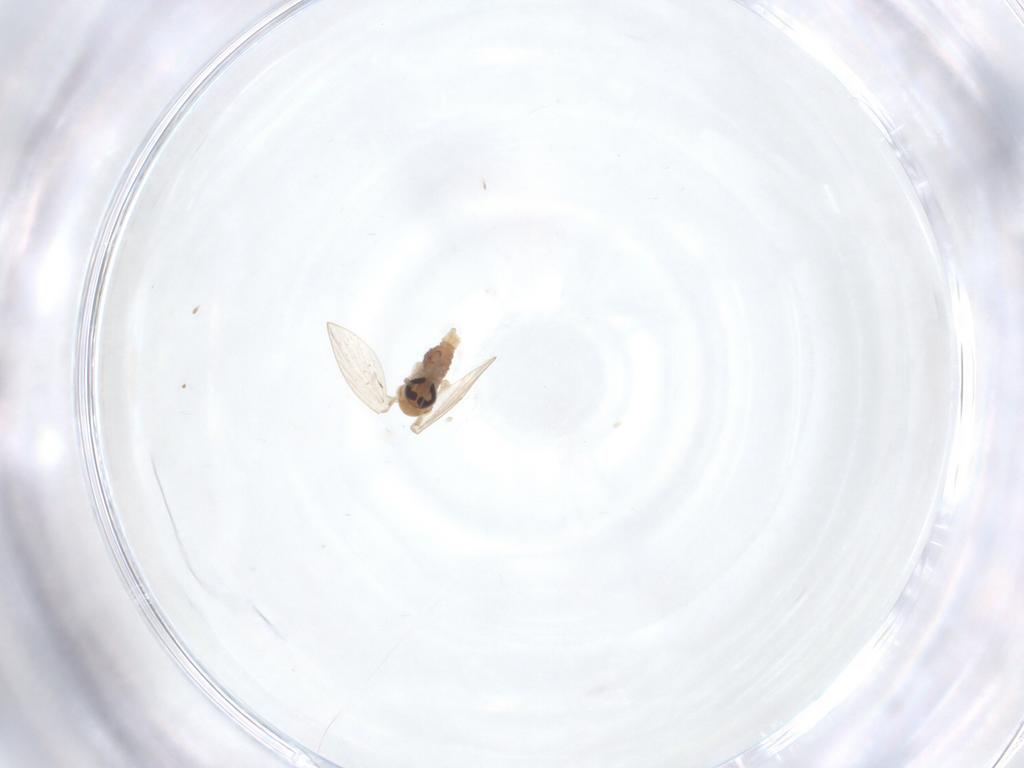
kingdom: Animalia
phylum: Arthropoda
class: Insecta
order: Diptera
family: Psychodidae
